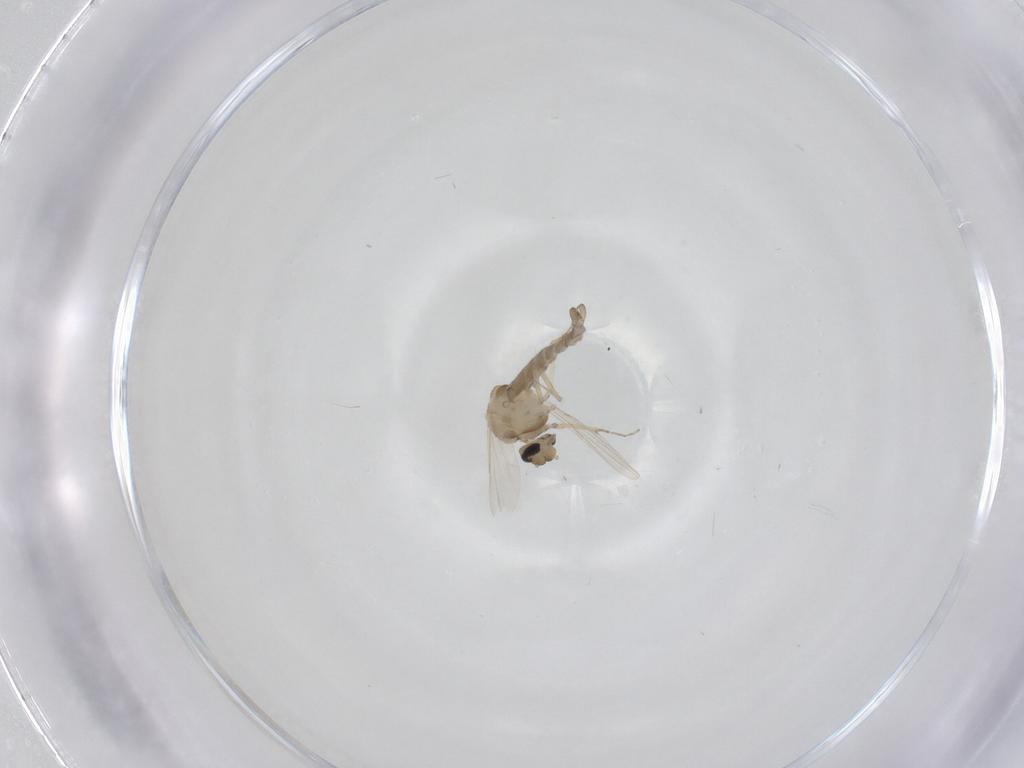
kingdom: Animalia
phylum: Arthropoda
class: Insecta
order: Diptera
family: Ceratopogonidae
